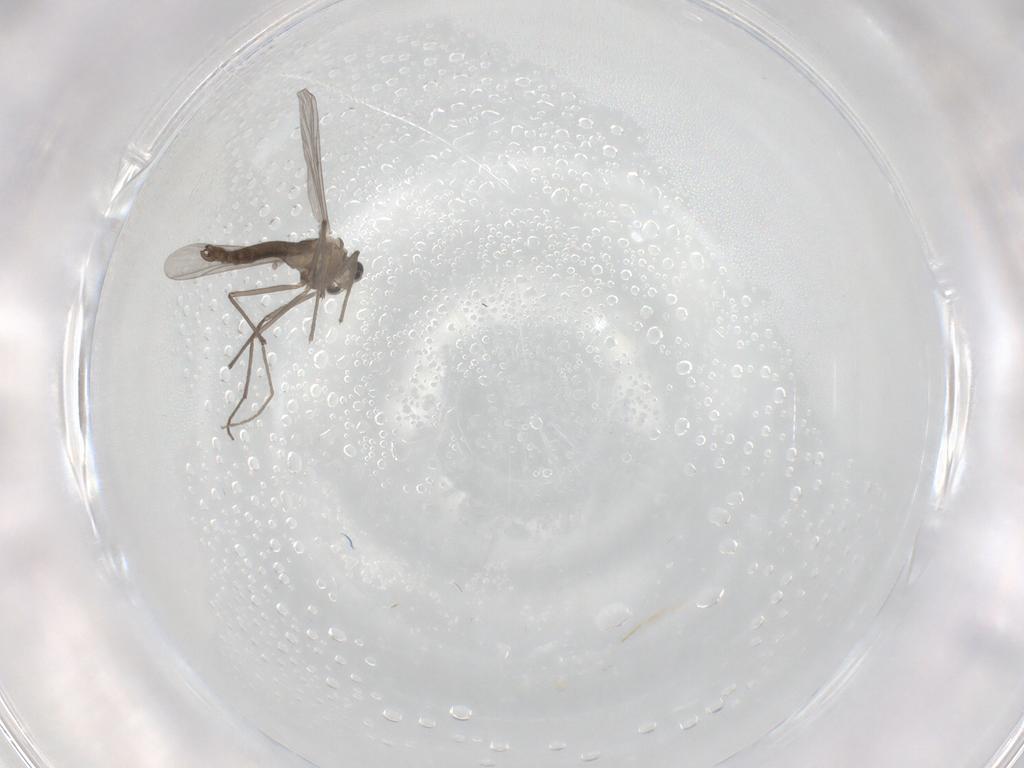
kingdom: Animalia
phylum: Arthropoda
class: Insecta
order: Diptera
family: Chironomidae
